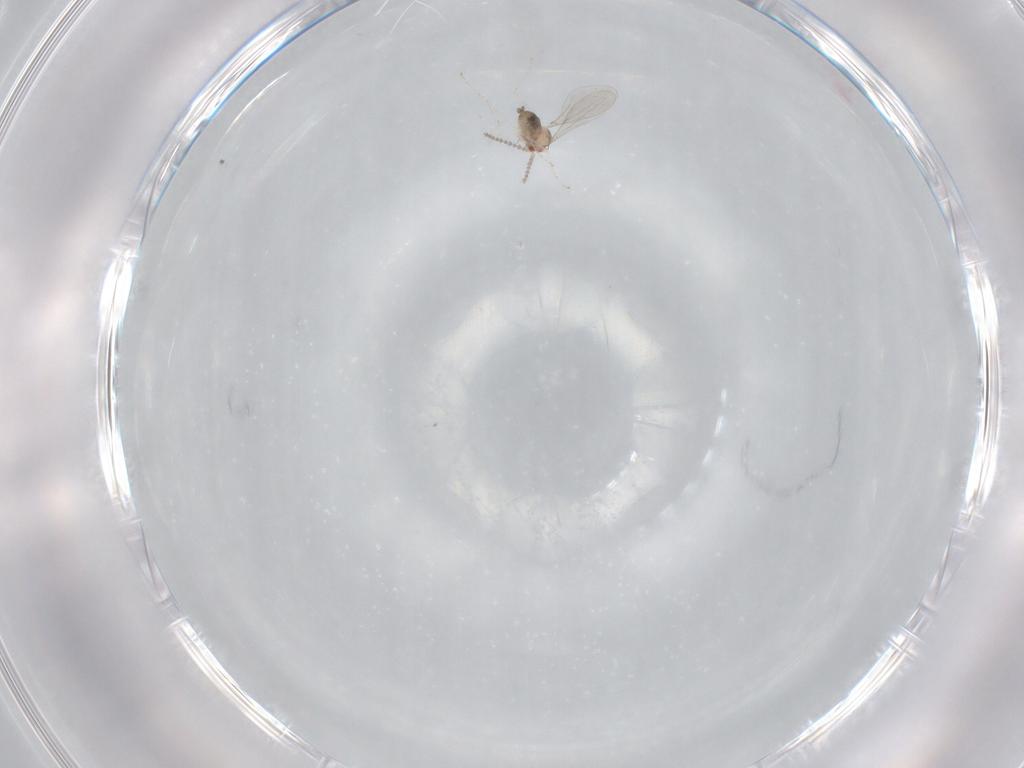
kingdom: Animalia
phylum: Arthropoda
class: Insecta
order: Diptera
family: Cecidomyiidae
